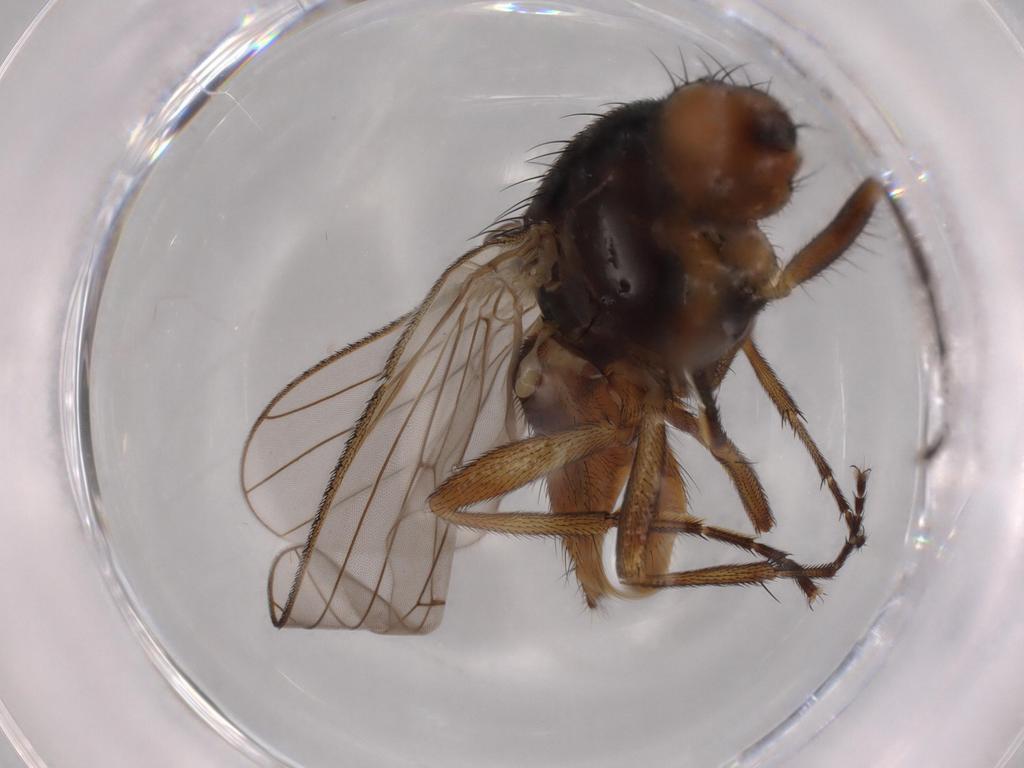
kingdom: Animalia
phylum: Arthropoda
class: Insecta
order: Diptera
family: Heleomyzidae
